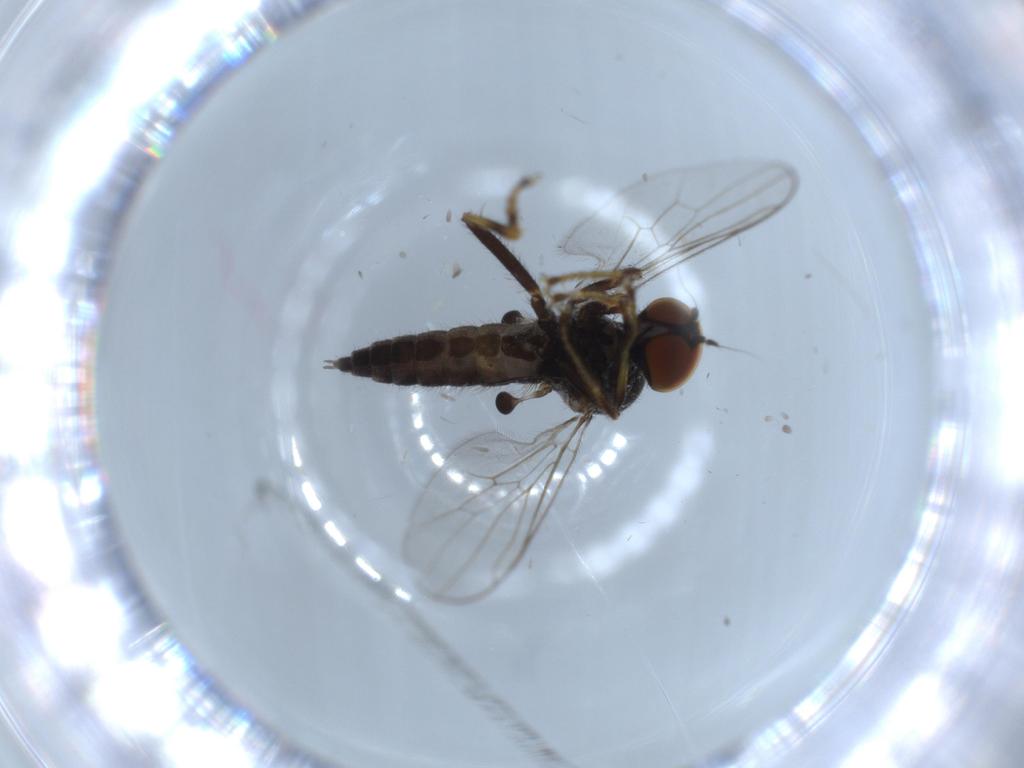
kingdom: Animalia
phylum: Arthropoda
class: Insecta
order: Diptera
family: Hybotidae
